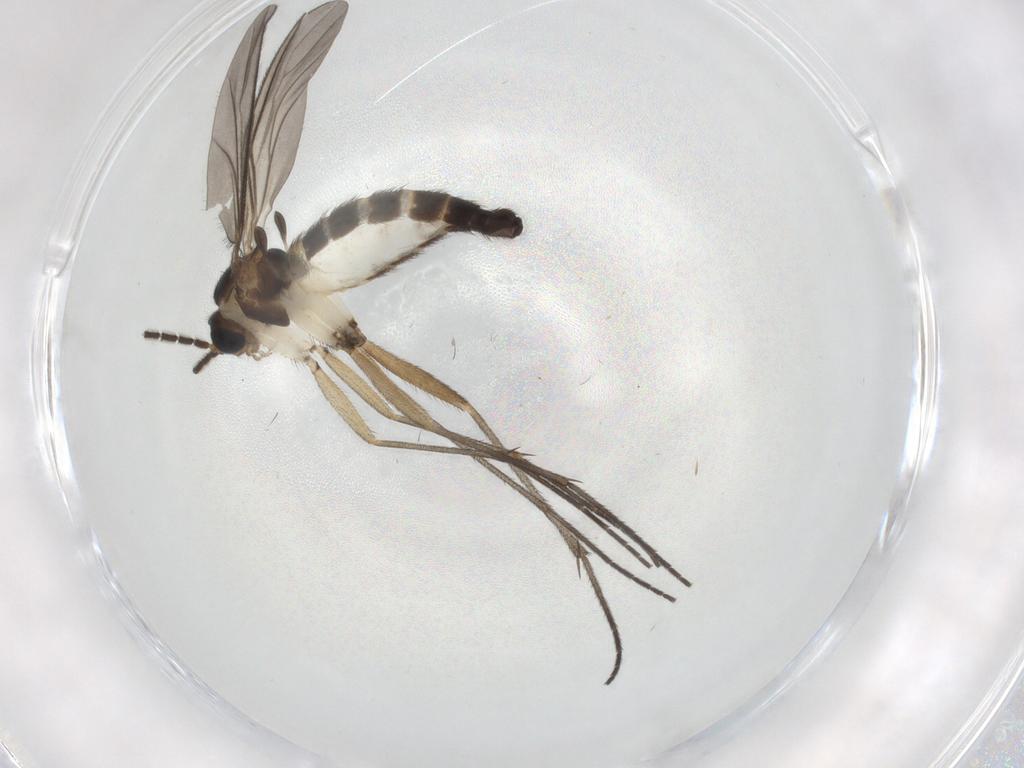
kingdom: Animalia
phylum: Arthropoda
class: Insecta
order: Diptera
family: Sciaridae
